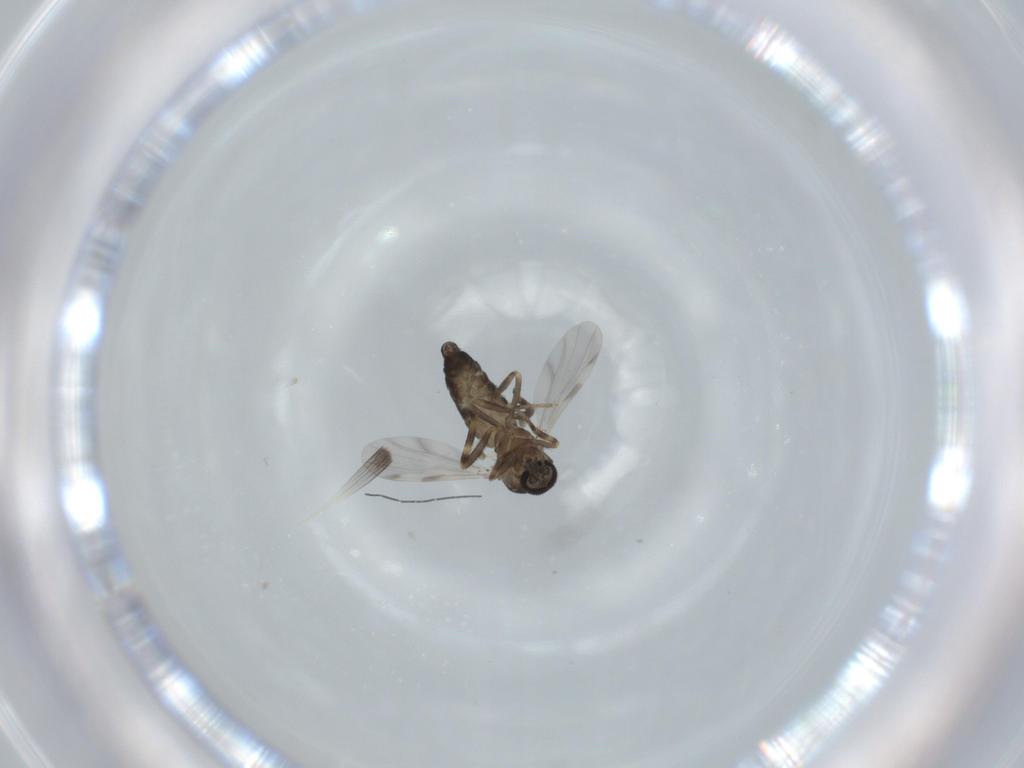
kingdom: Animalia
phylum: Arthropoda
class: Insecta
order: Diptera
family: Ceratopogonidae
